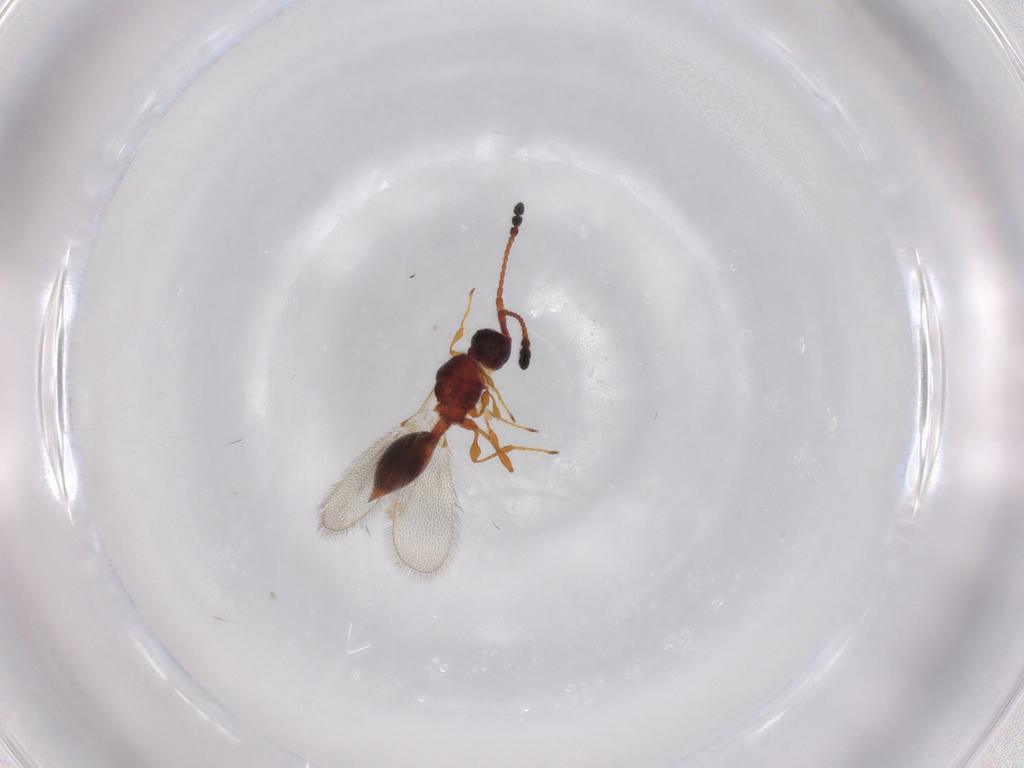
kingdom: Animalia
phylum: Arthropoda
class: Insecta
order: Hymenoptera
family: Diapriidae
